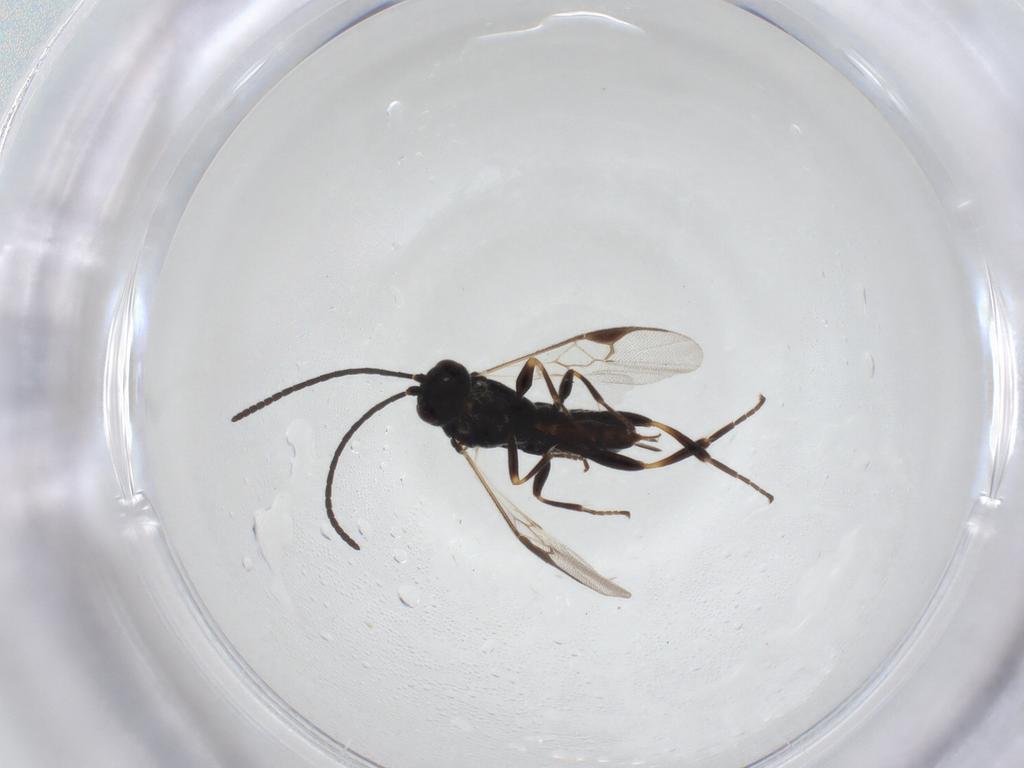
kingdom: Animalia
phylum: Arthropoda
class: Insecta
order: Hymenoptera
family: Braconidae
